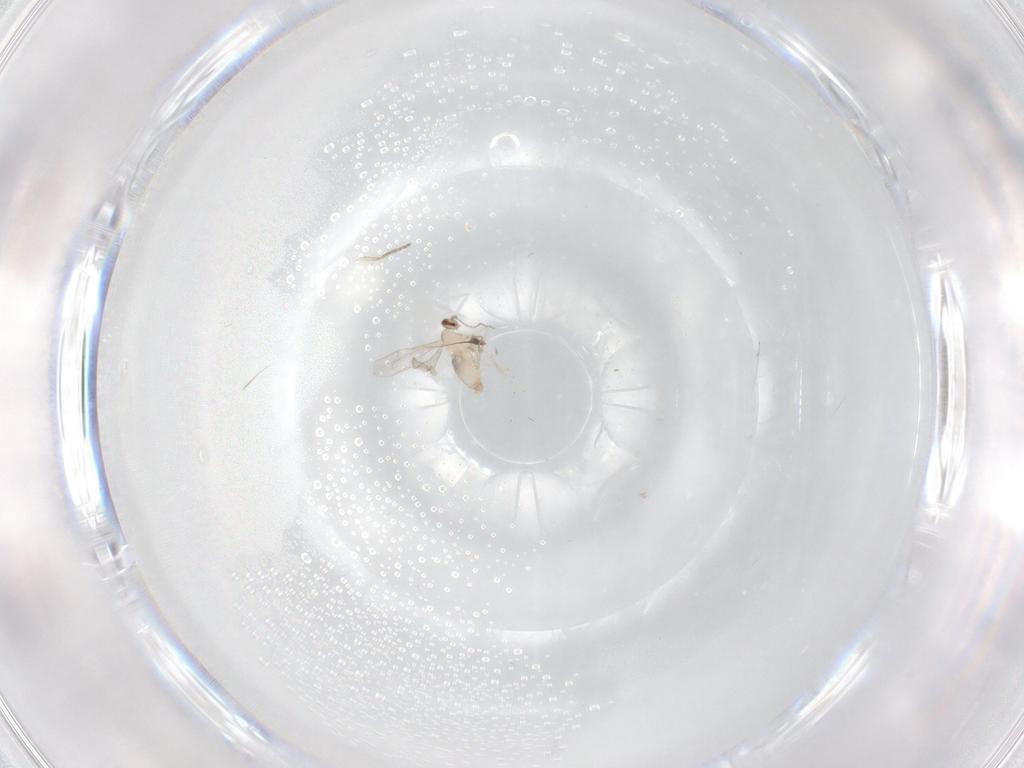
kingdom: Animalia
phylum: Arthropoda
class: Insecta
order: Diptera
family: Cecidomyiidae
